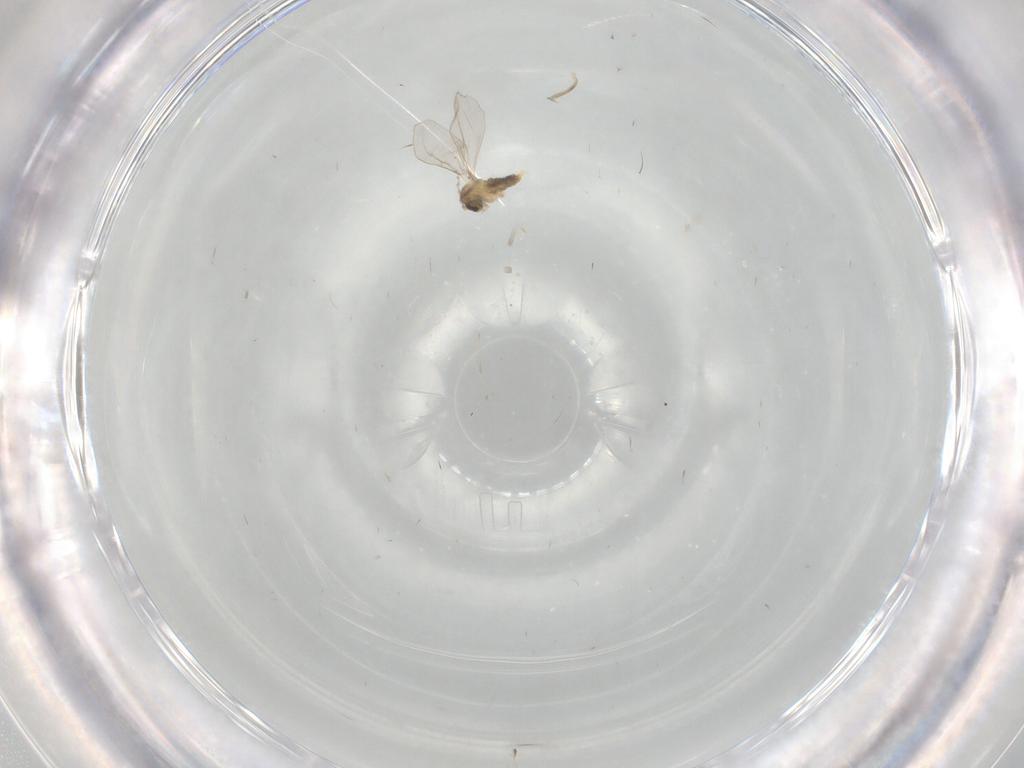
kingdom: Animalia
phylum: Arthropoda
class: Insecta
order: Diptera
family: Cecidomyiidae
